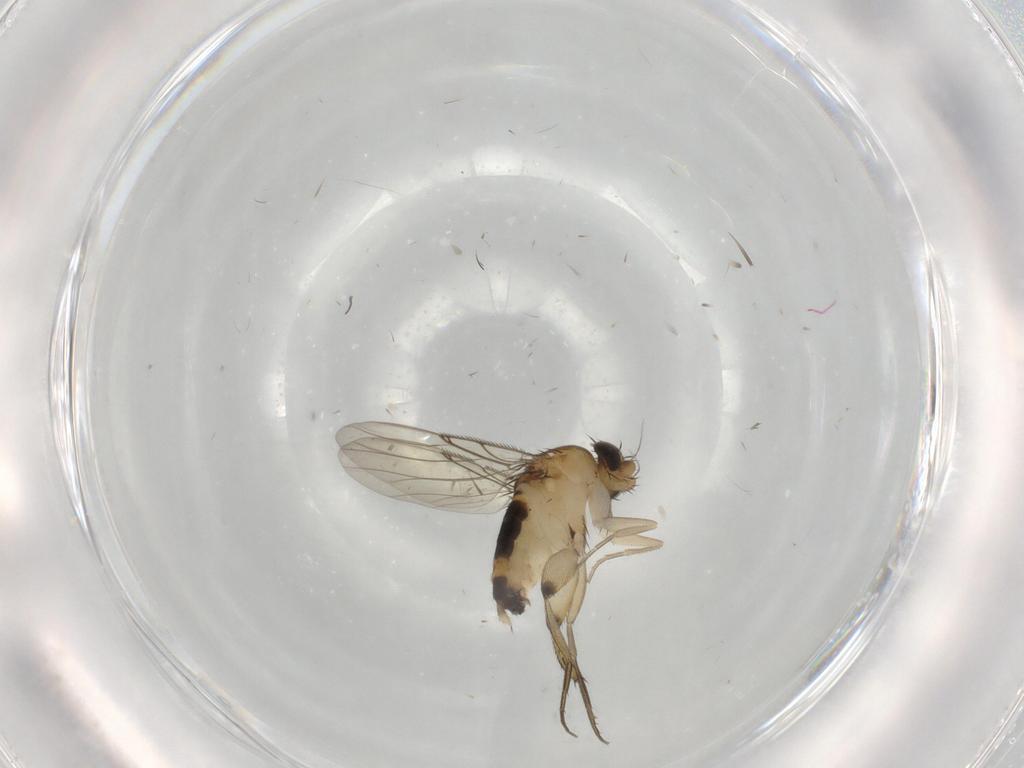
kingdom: Animalia
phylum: Arthropoda
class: Insecta
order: Diptera
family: Phoridae
